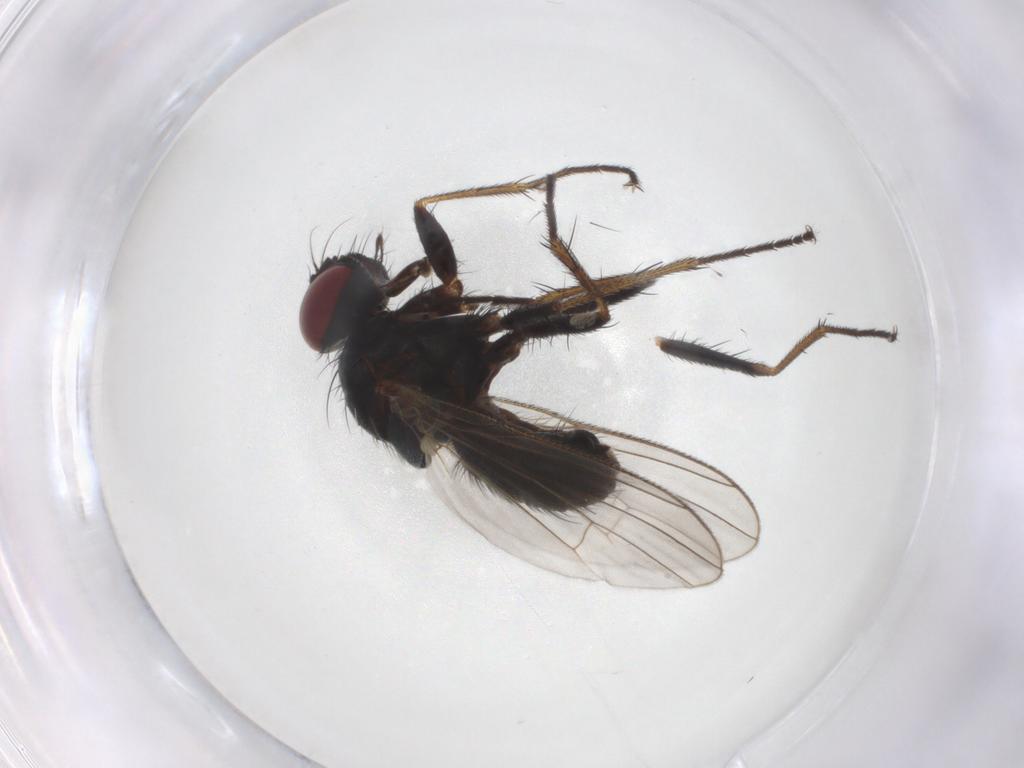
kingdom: Animalia
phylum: Arthropoda
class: Insecta
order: Diptera
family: Muscidae
